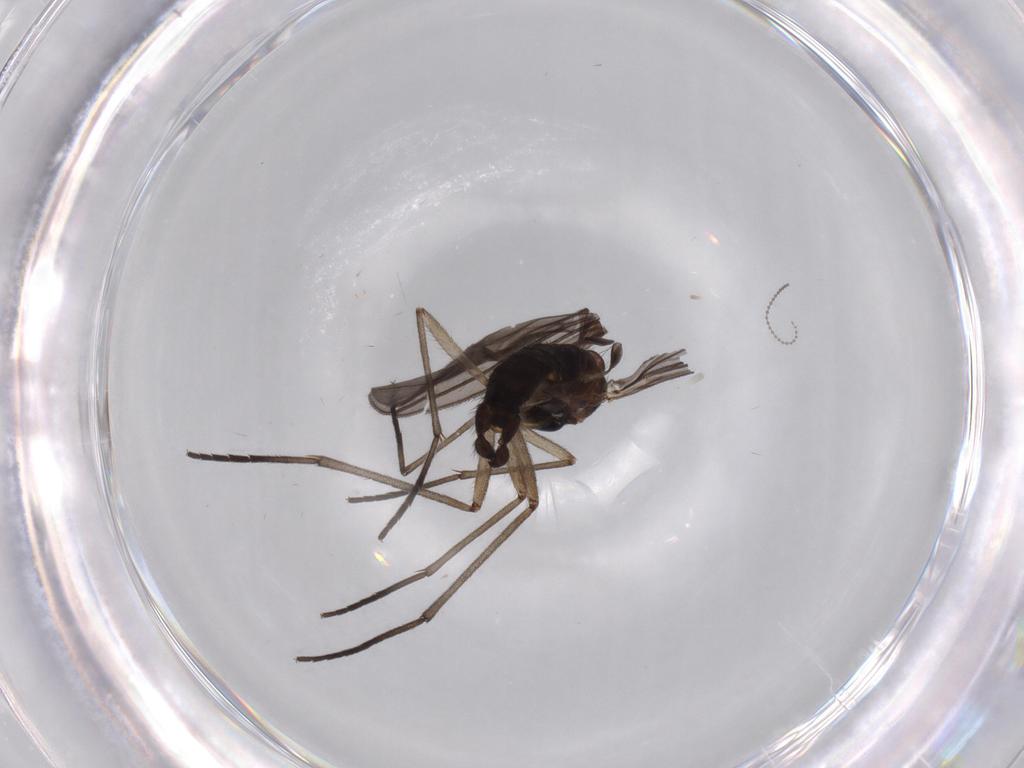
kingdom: Animalia
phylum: Arthropoda
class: Insecta
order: Diptera
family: Sciaridae
